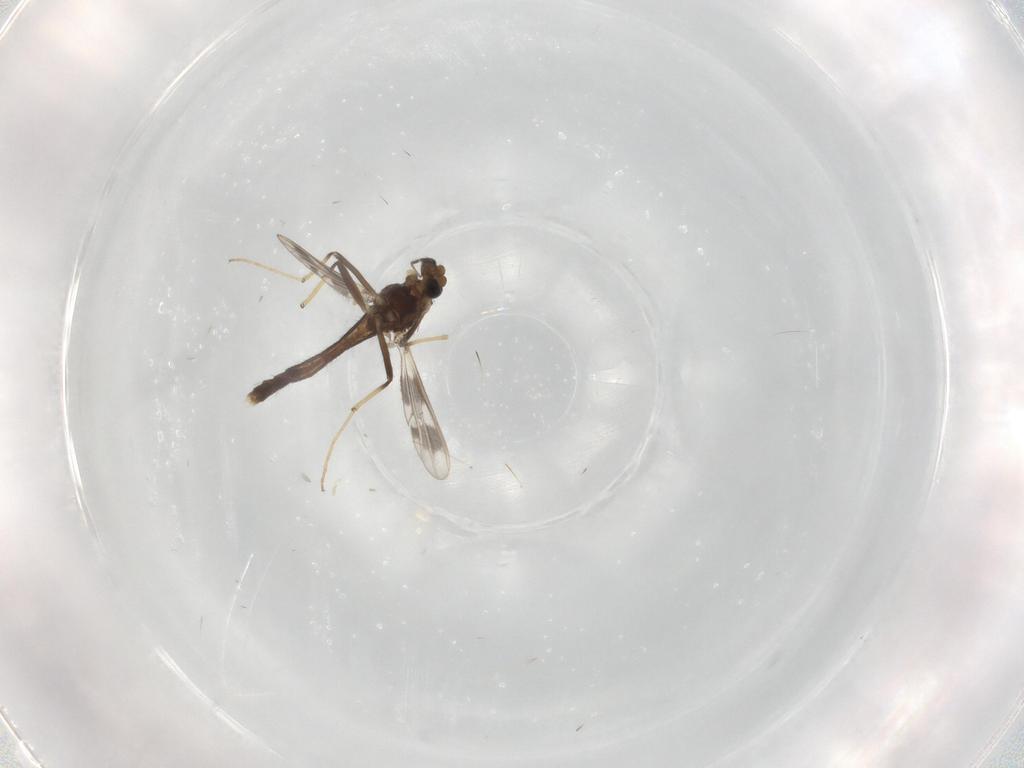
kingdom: Animalia
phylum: Arthropoda
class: Insecta
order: Diptera
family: Chironomidae
